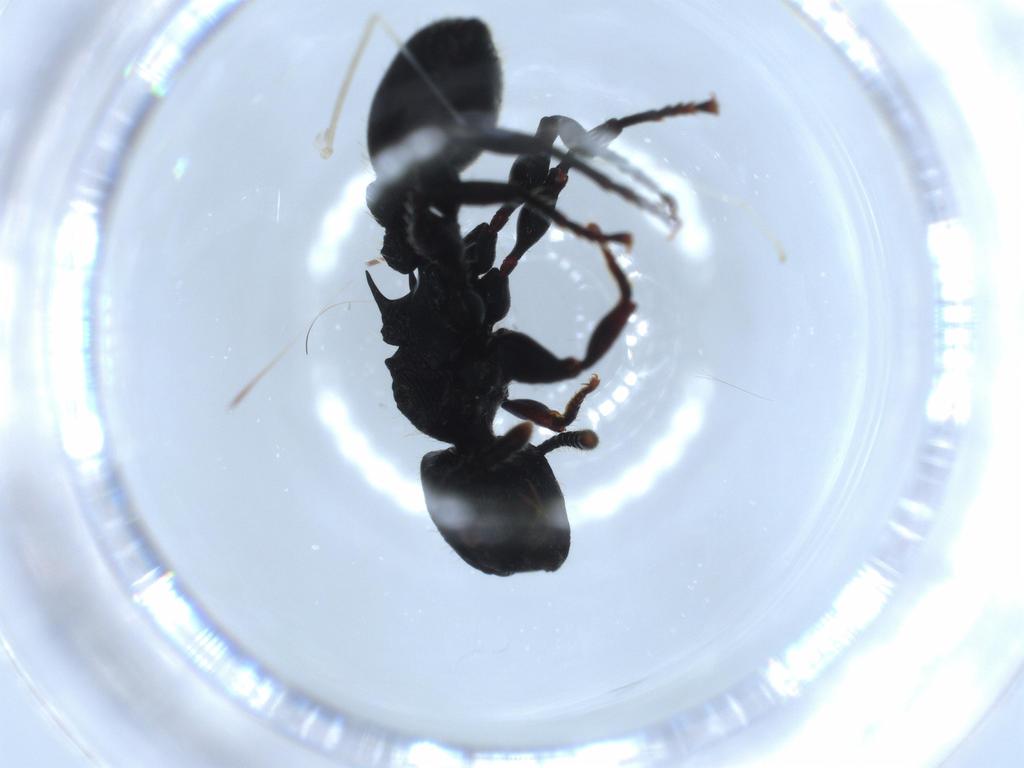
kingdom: Animalia
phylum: Arthropoda
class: Insecta
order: Hymenoptera
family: Formicidae
